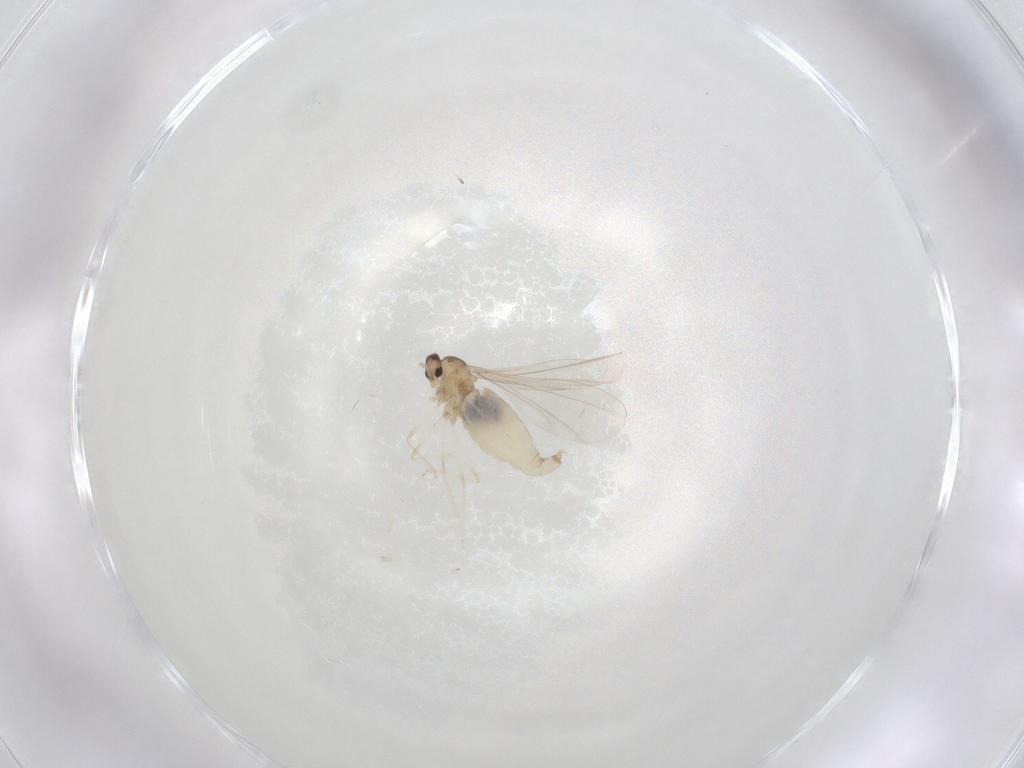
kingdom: Animalia
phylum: Arthropoda
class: Insecta
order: Diptera
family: Cecidomyiidae
